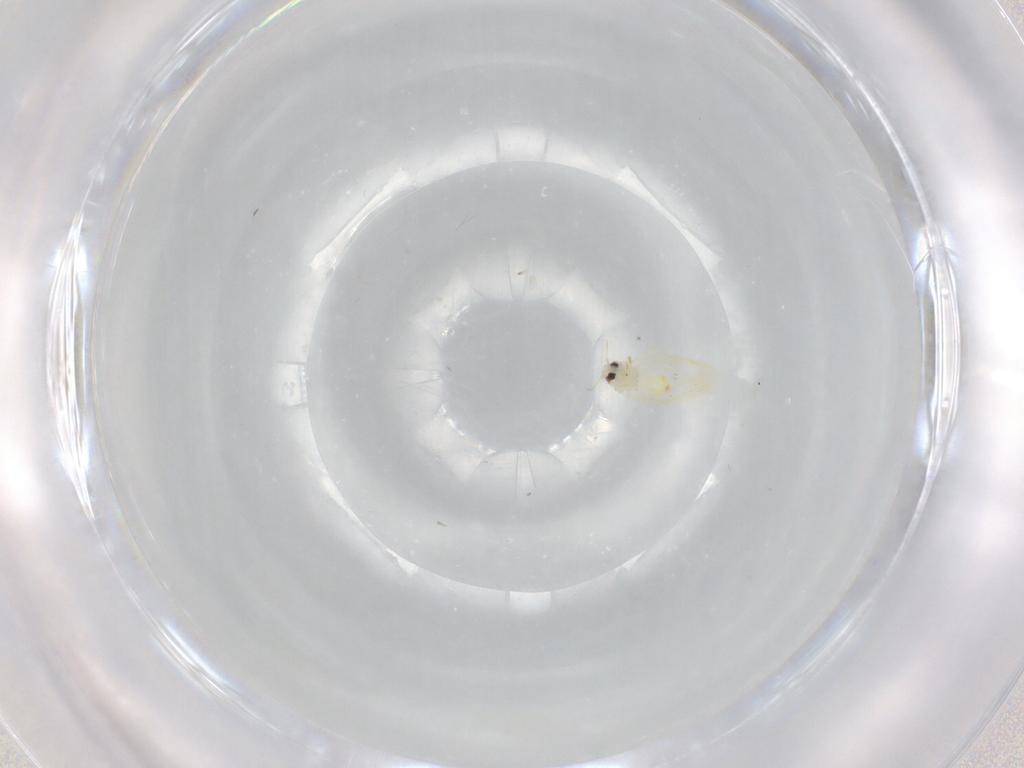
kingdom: Animalia
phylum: Arthropoda
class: Insecta
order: Hemiptera
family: Aleyrodidae
